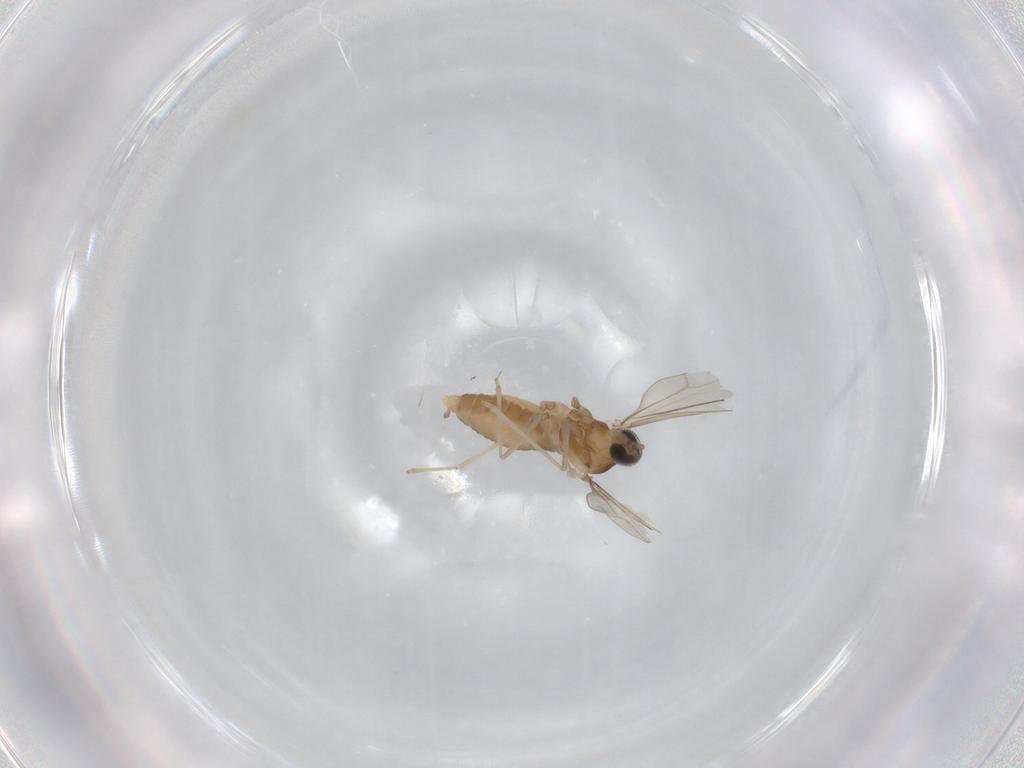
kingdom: Animalia
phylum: Arthropoda
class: Insecta
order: Diptera
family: Cecidomyiidae
